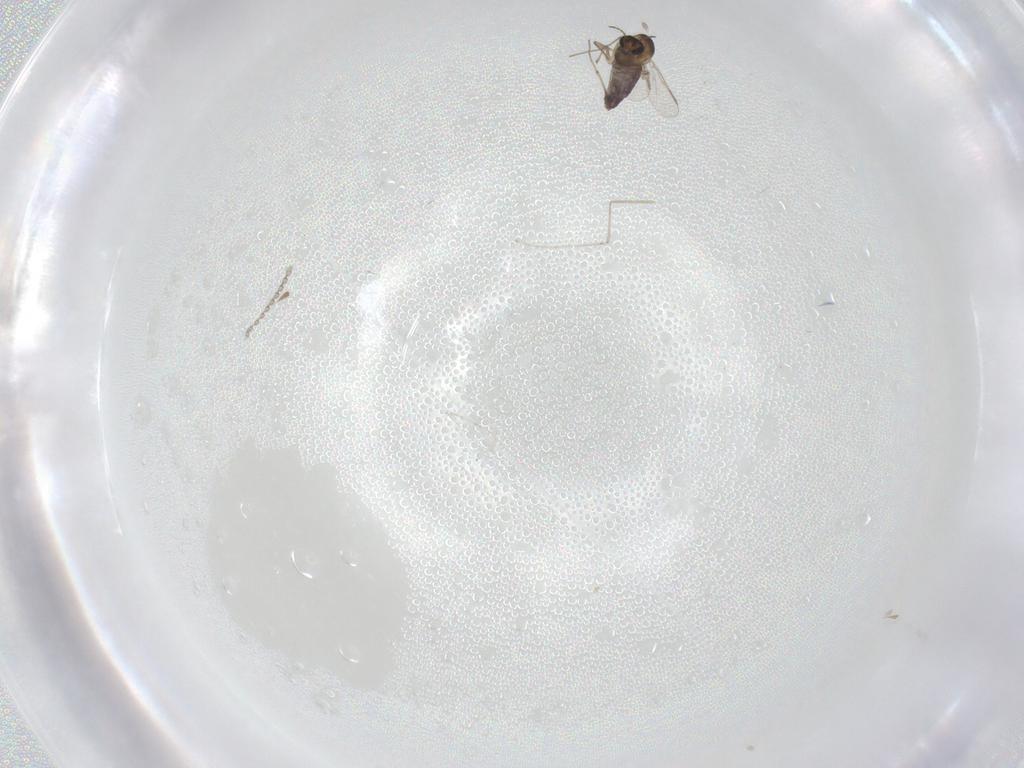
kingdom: Animalia
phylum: Arthropoda
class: Insecta
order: Diptera
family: Chironomidae
